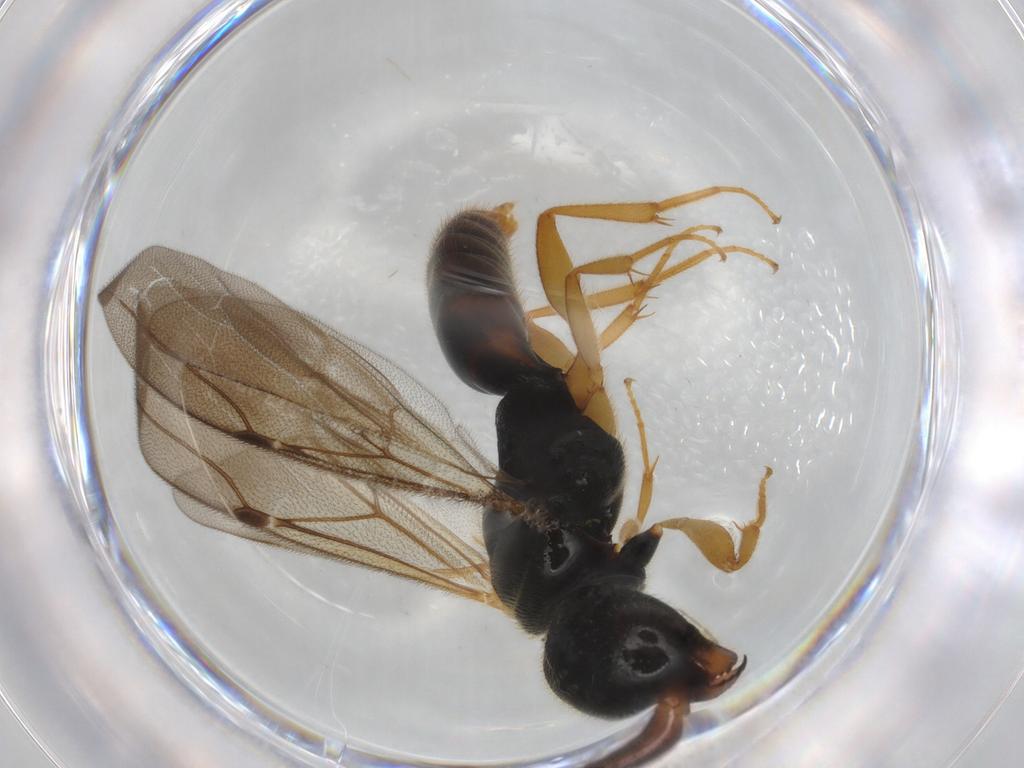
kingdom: Animalia
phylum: Arthropoda
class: Insecta
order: Hymenoptera
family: Bethylidae
